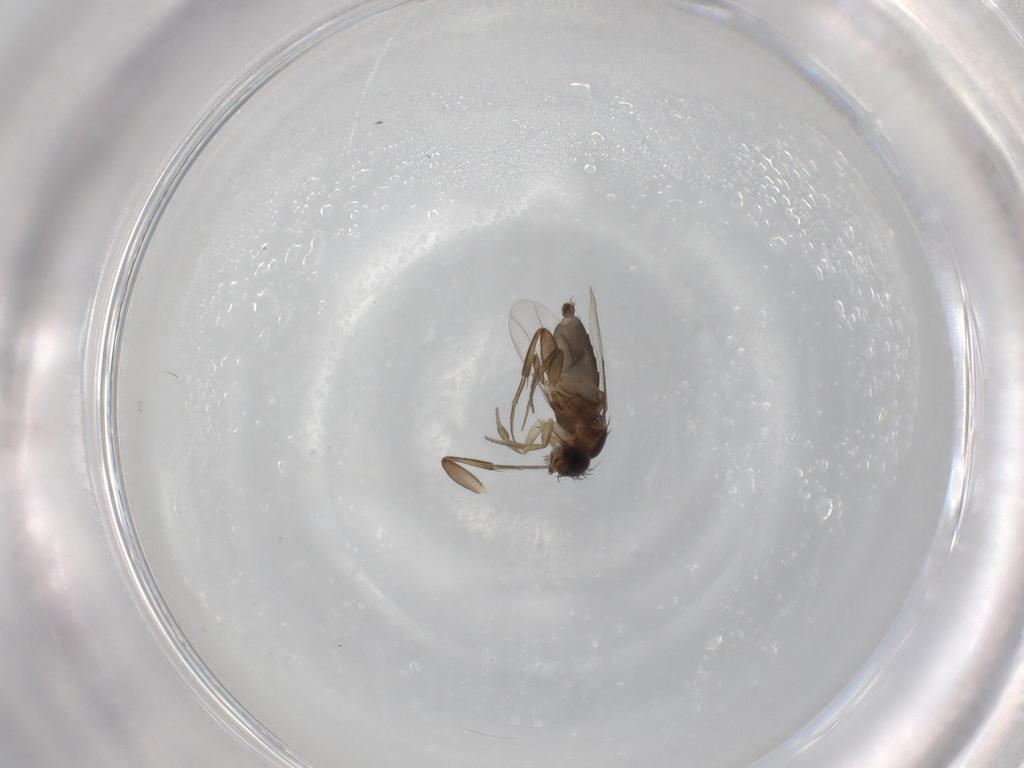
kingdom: Animalia
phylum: Arthropoda
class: Insecta
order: Diptera
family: Phoridae
